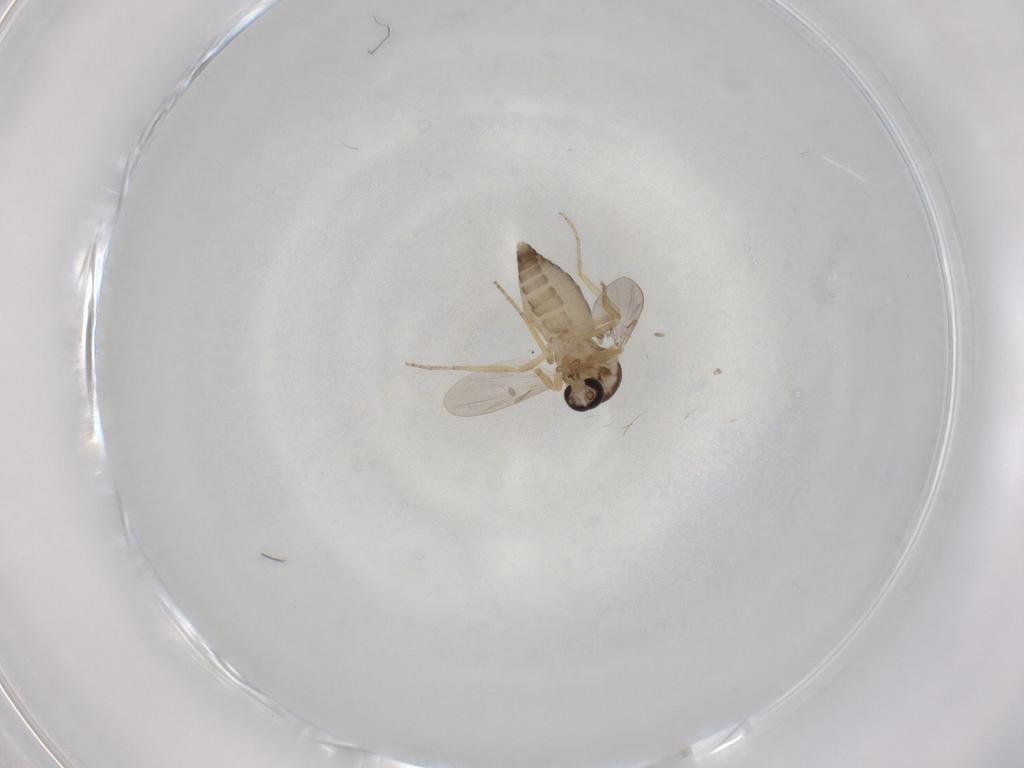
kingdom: Animalia
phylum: Arthropoda
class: Insecta
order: Diptera
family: Ceratopogonidae
